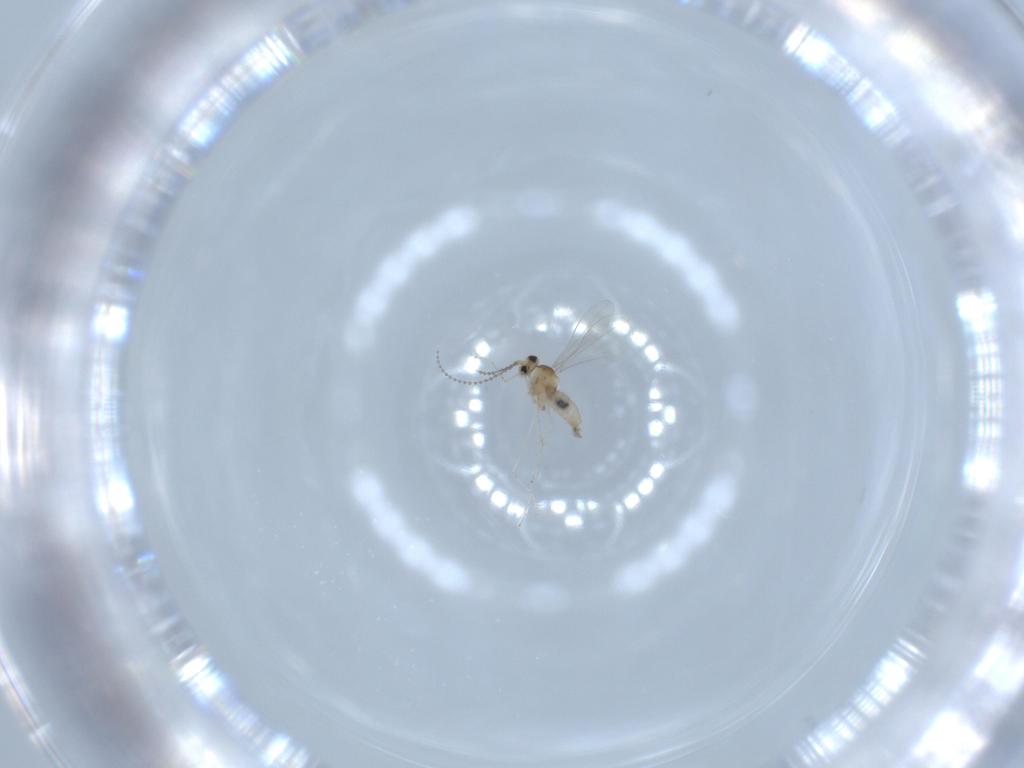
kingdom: Animalia
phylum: Arthropoda
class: Insecta
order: Diptera
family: Cecidomyiidae
